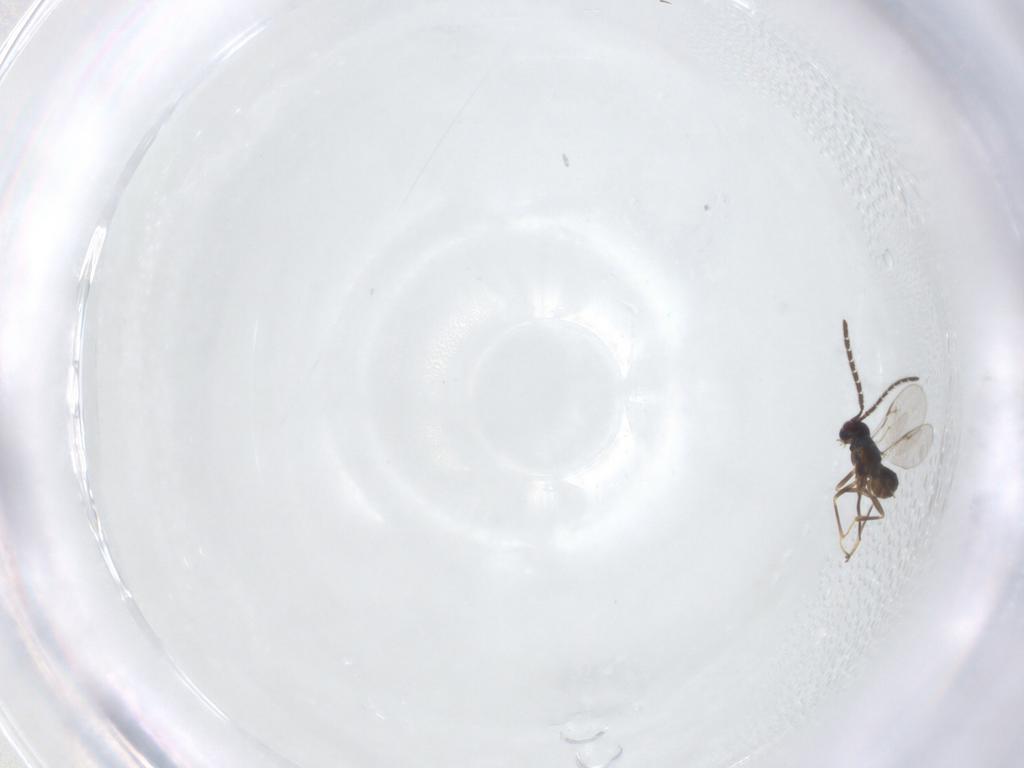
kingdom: Animalia
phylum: Arthropoda
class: Insecta
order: Hymenoptera
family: Encyrtidae
